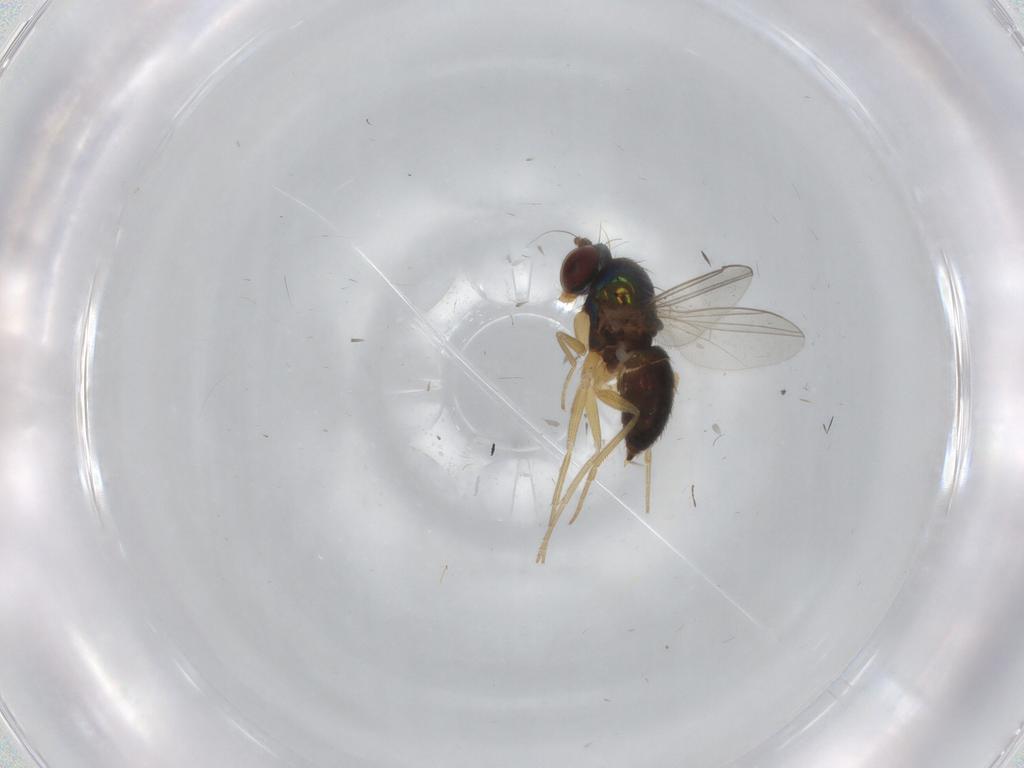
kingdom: Animalia
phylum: Arthropoda
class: Insecta
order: Diptera
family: Dolichopodidae
